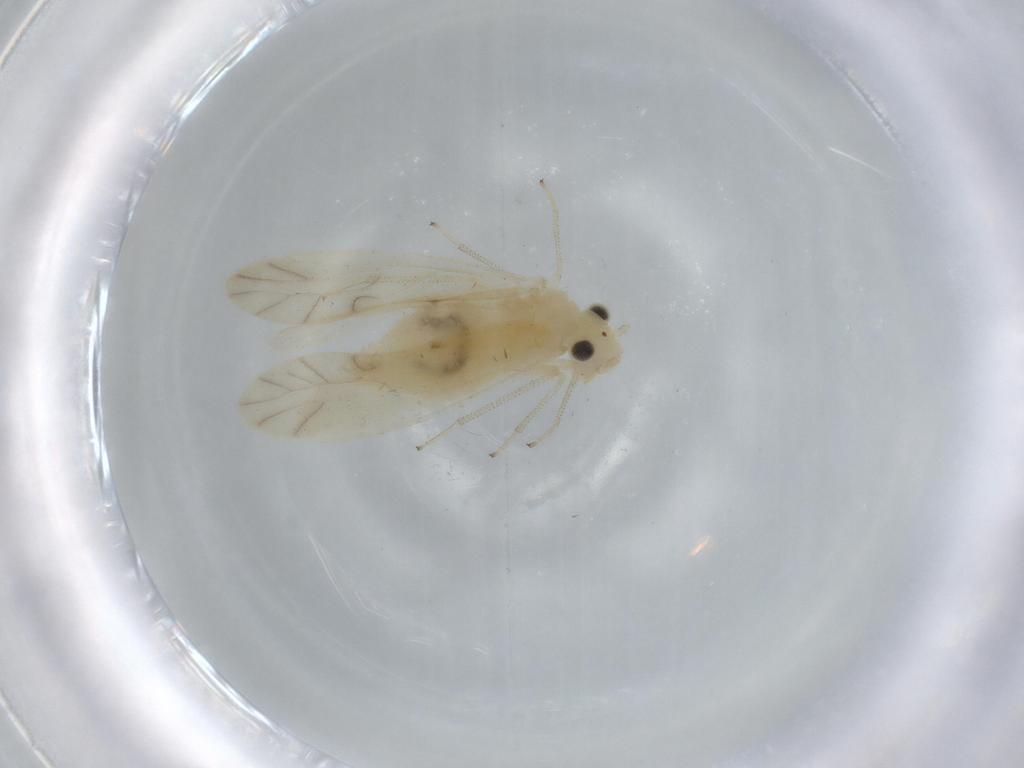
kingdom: Animalia
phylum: Arthropoda
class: Insecta
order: Psocodea
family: Caeciliusidae
